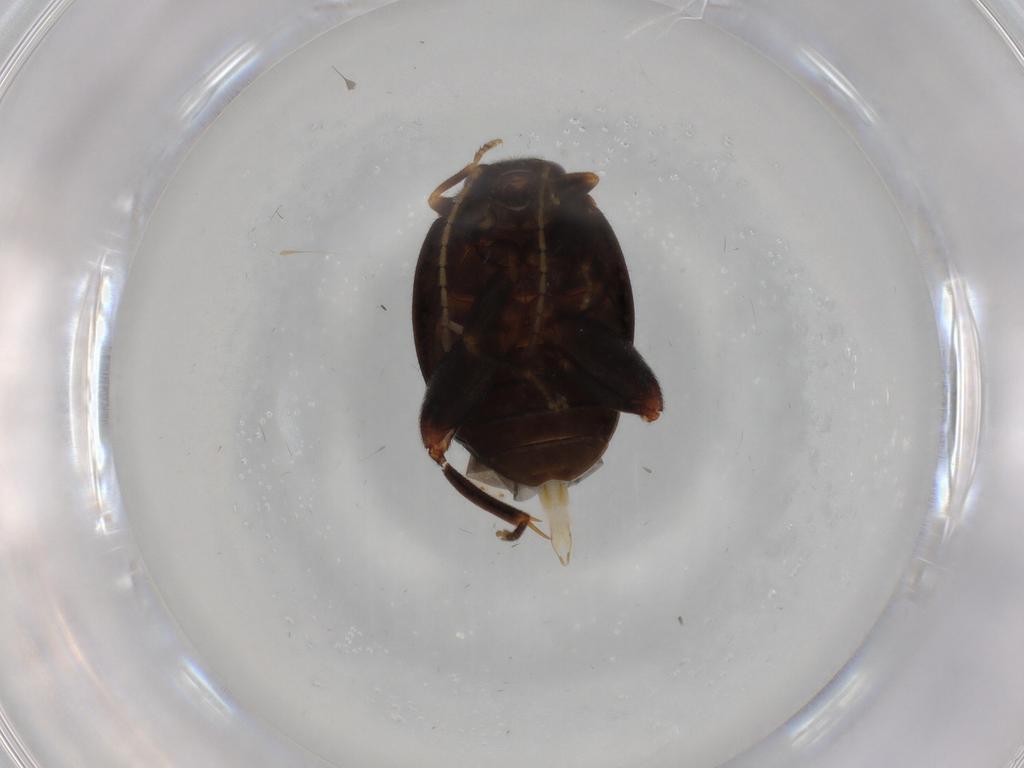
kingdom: Animalia
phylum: Arthropoda
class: Insecta
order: Coleoptera
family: Scirtidae
